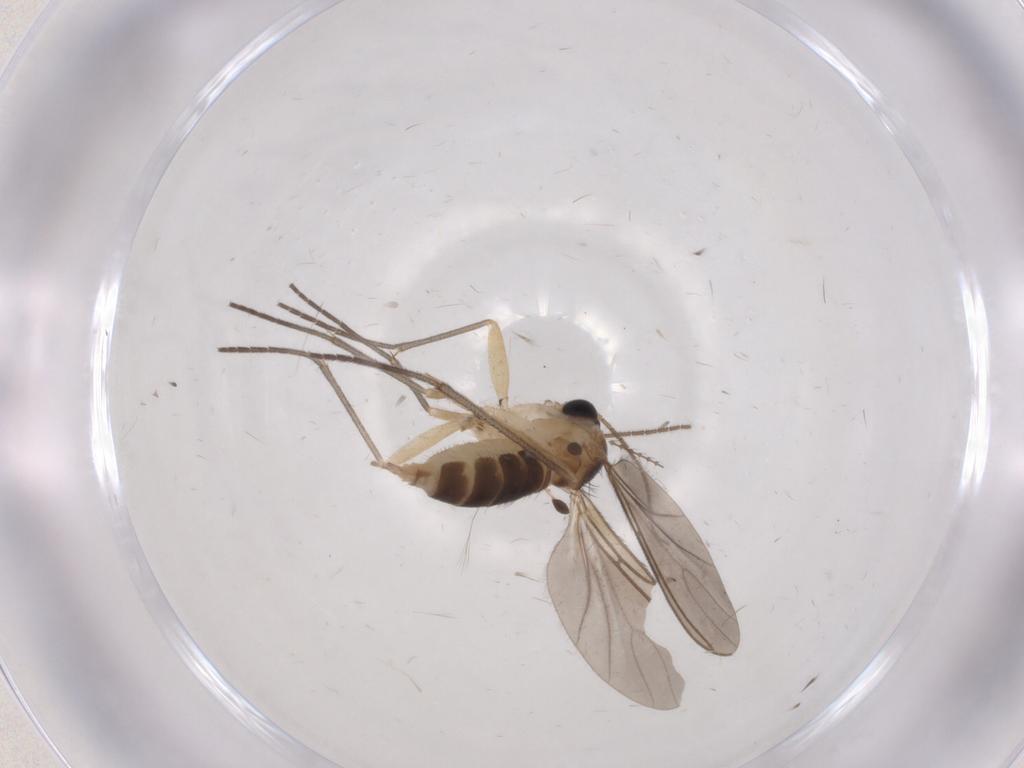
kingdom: Animalia
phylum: Arthropoda
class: Insecta
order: Diptera
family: Sciaridae
